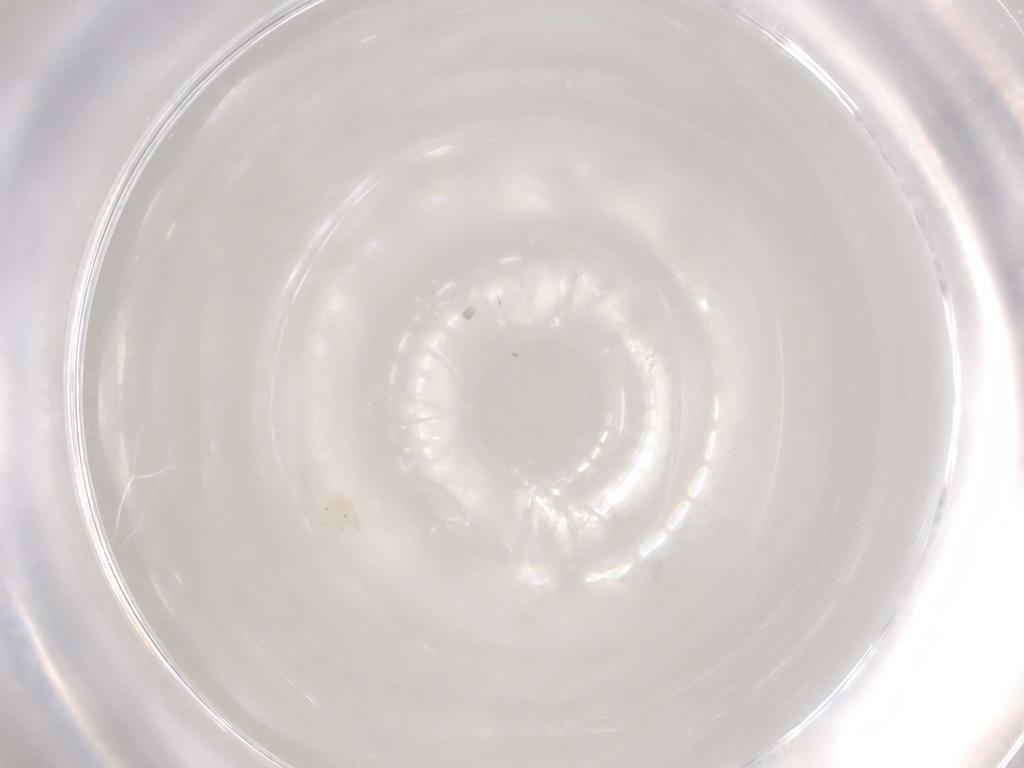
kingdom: Animalia
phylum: Arthropoda
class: Arachnida
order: Trombidiformes
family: Anystidae
